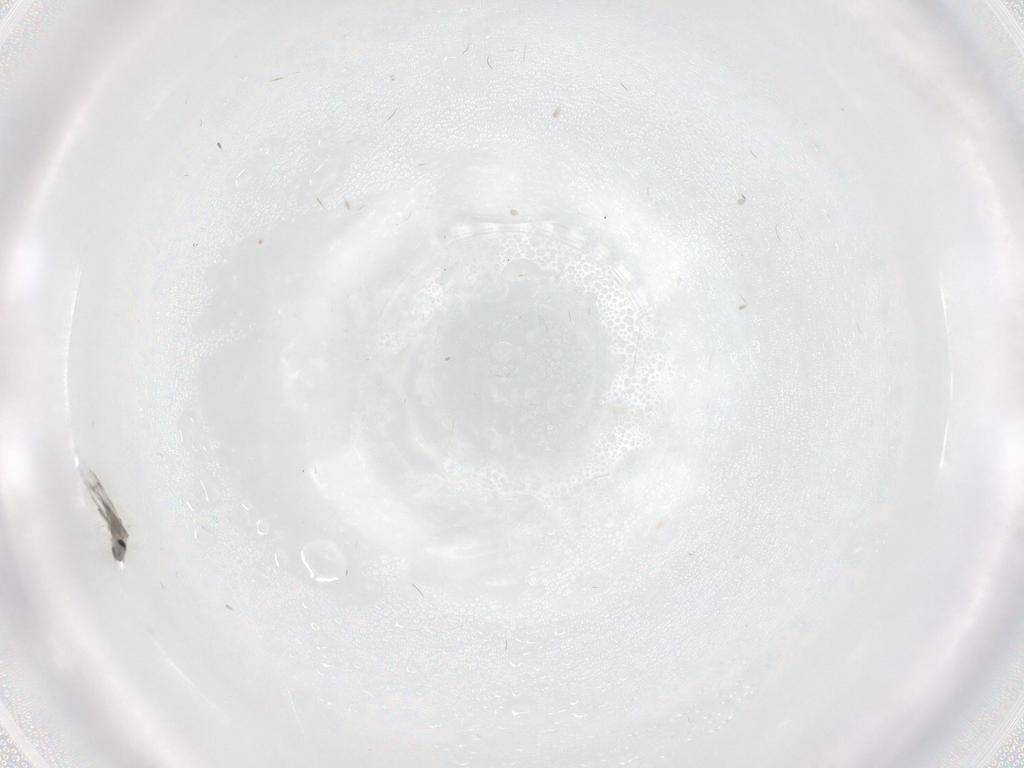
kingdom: Animalia
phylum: Arthropoda
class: Insecta
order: Diptera
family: Chironomidae
